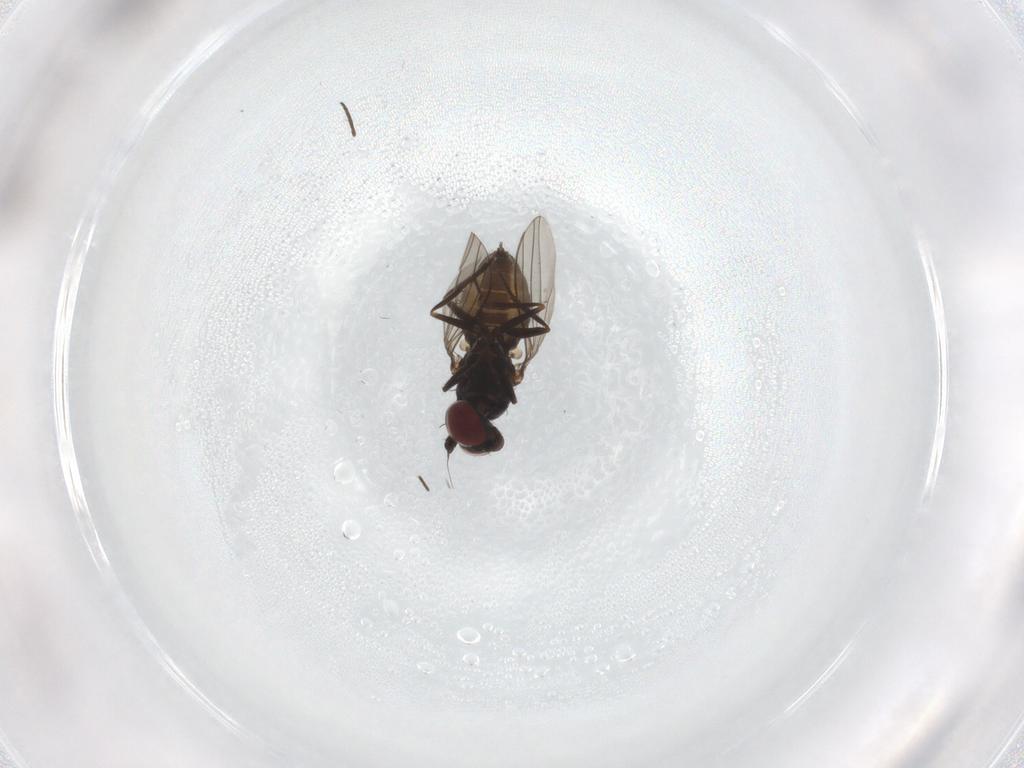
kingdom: Animalia
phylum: Arthropoda
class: Insecta
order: Diptera
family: Dolichopodidae
